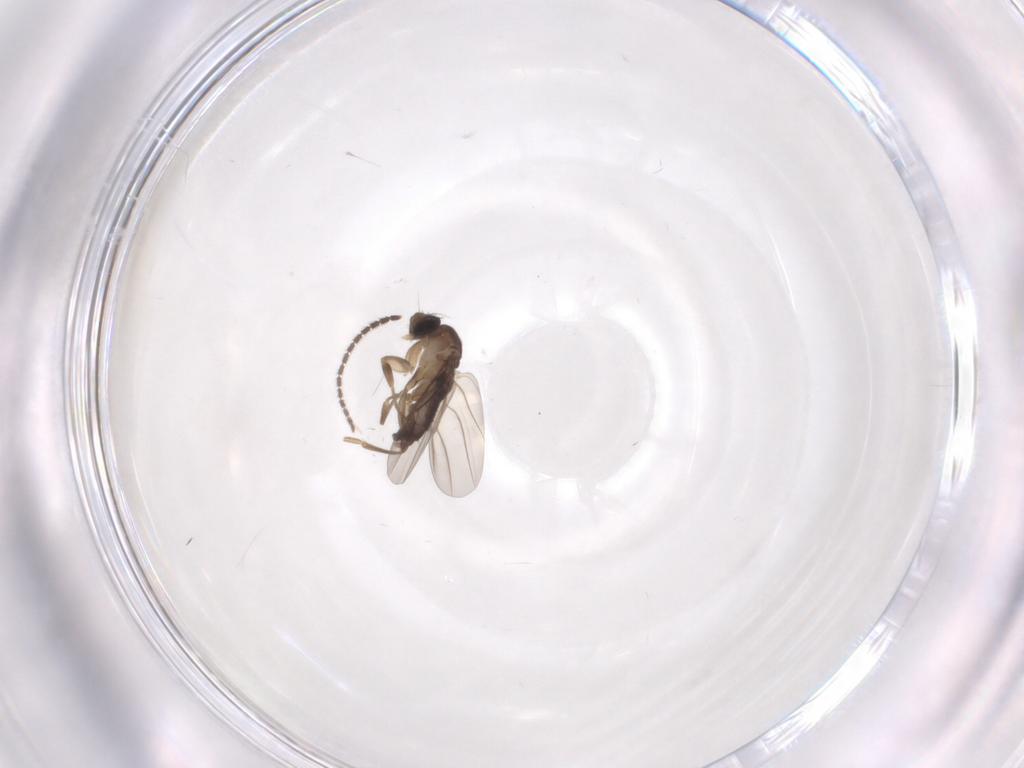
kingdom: Animalia
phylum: Arthropoda
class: Insecta
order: Diptera
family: Phoridae
